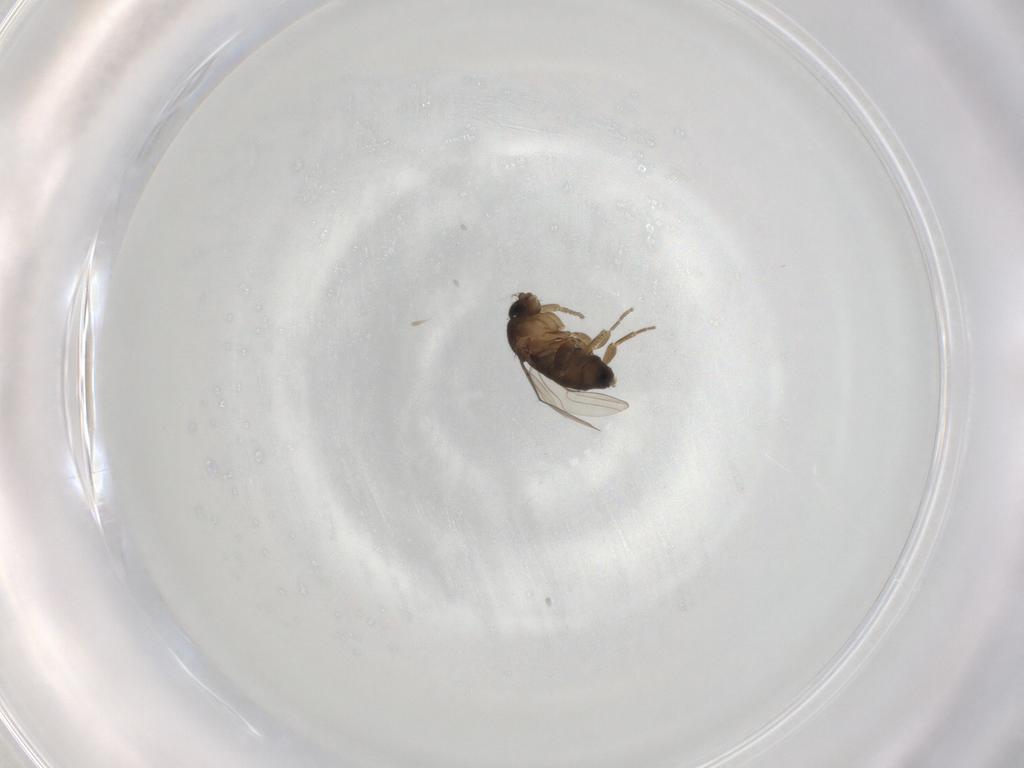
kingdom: Animalia
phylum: Arthropoda
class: Insecta
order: Diptera
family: Phoridae
